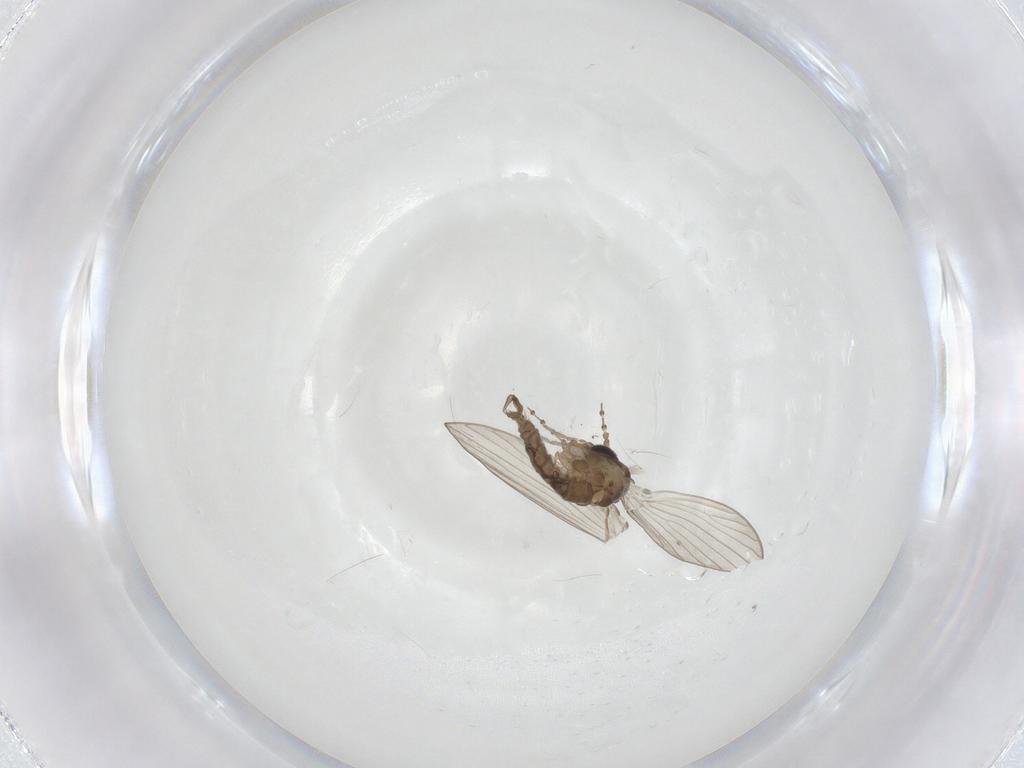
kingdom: Animalia
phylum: Arthropoda
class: Insecta
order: Diptera
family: Psychodidae
